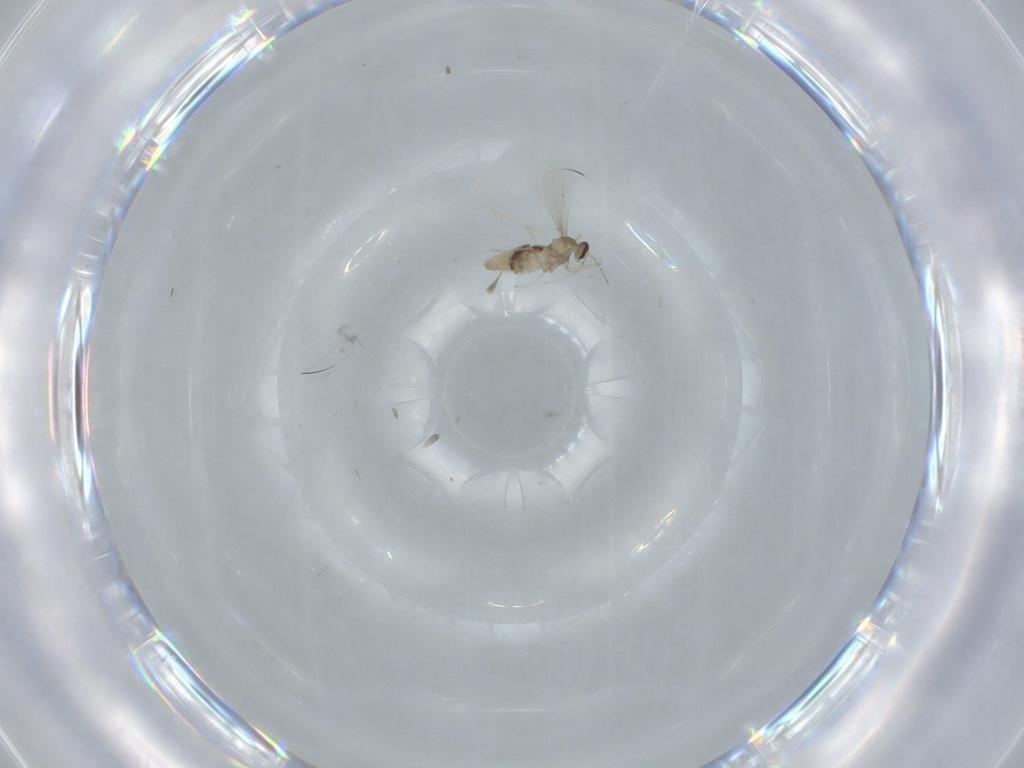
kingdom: Animalia
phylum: Arthropoda
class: Insecta
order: Diptera
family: Cecidomyiidae
